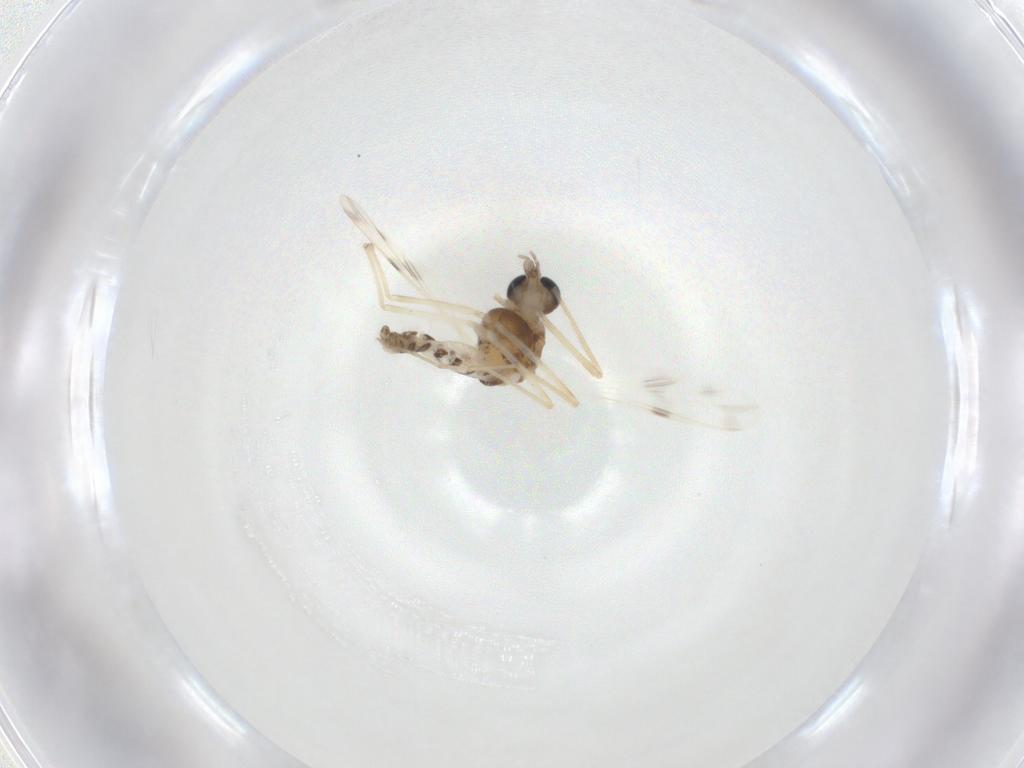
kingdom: Animalia
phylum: Arthropoda
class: Insecta
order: Diptera
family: Chironomidae
